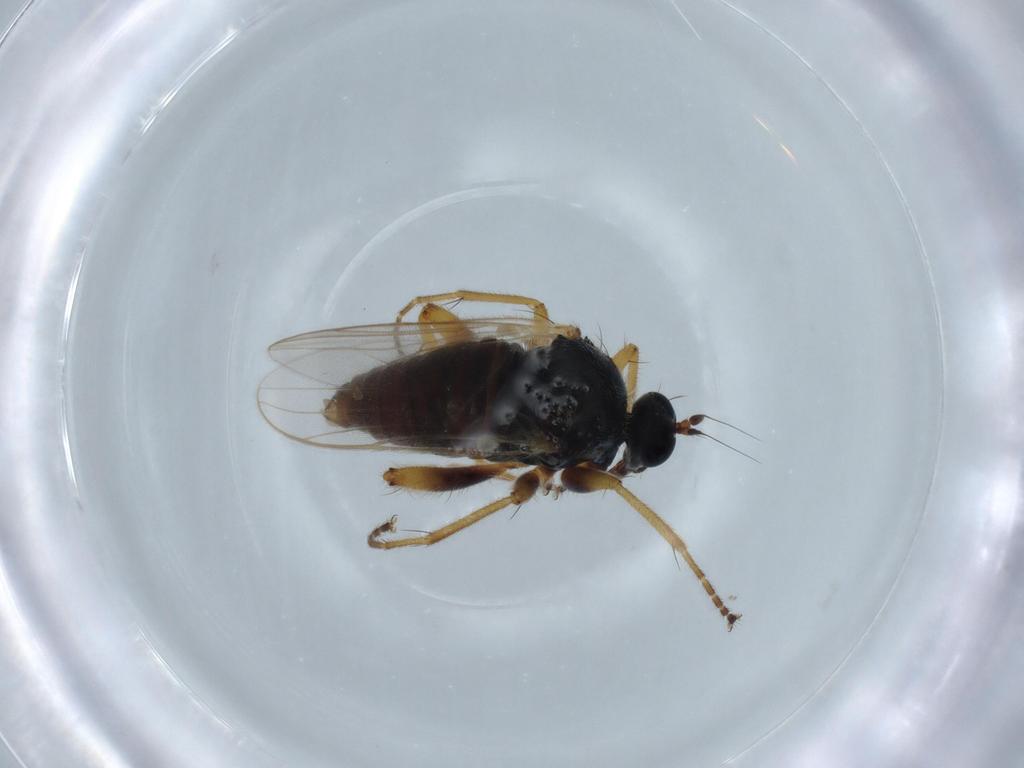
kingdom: Animalia
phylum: Arthropoda
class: Insecta
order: Diptera
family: Hybotidae
